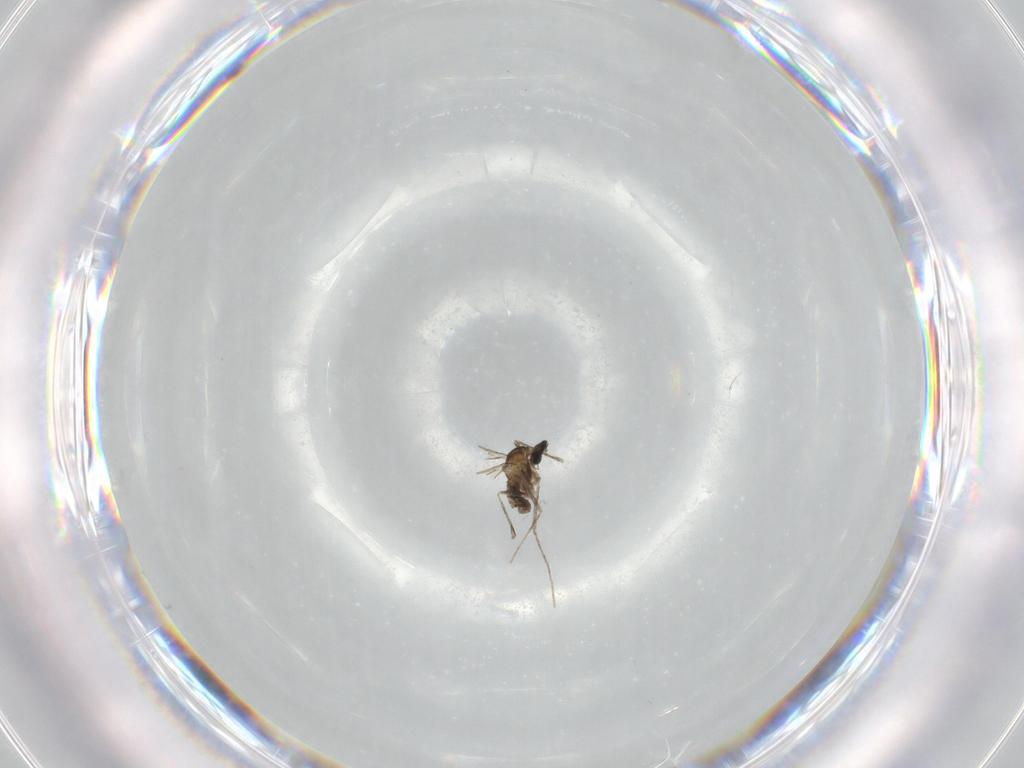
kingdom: Animalia
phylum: Arthropoda
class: Insecta
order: Diptera
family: Cecidomyiidae
